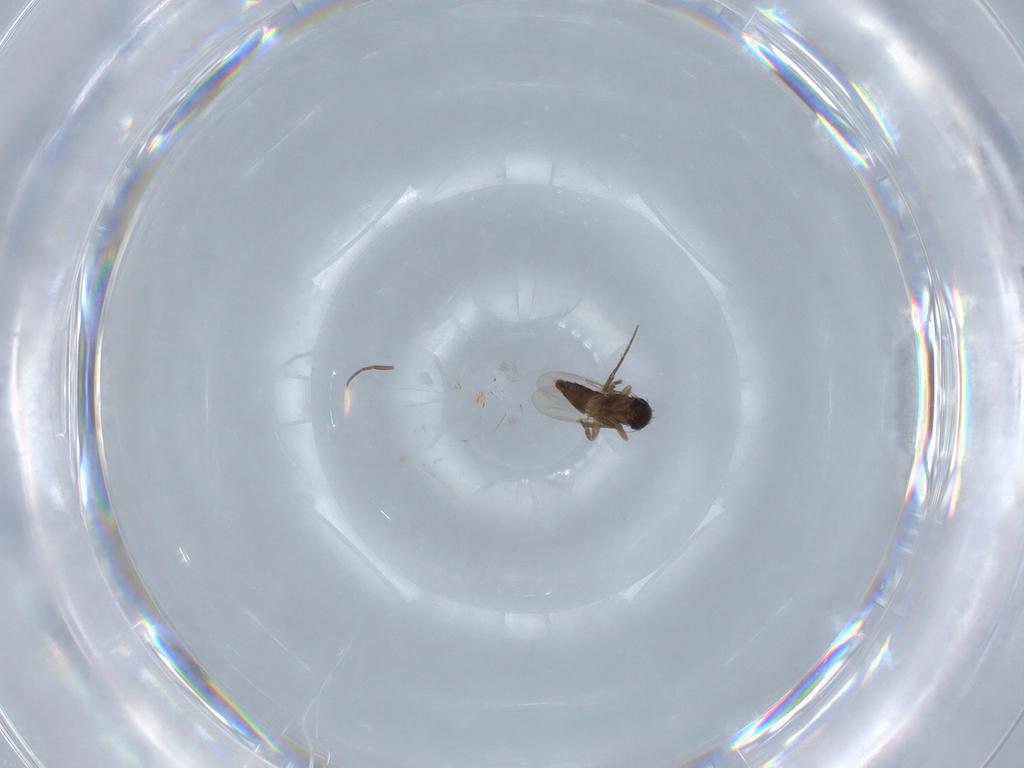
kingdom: Animalia
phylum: Arthropoda
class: Insecta
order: Diptera
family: Phoridae
